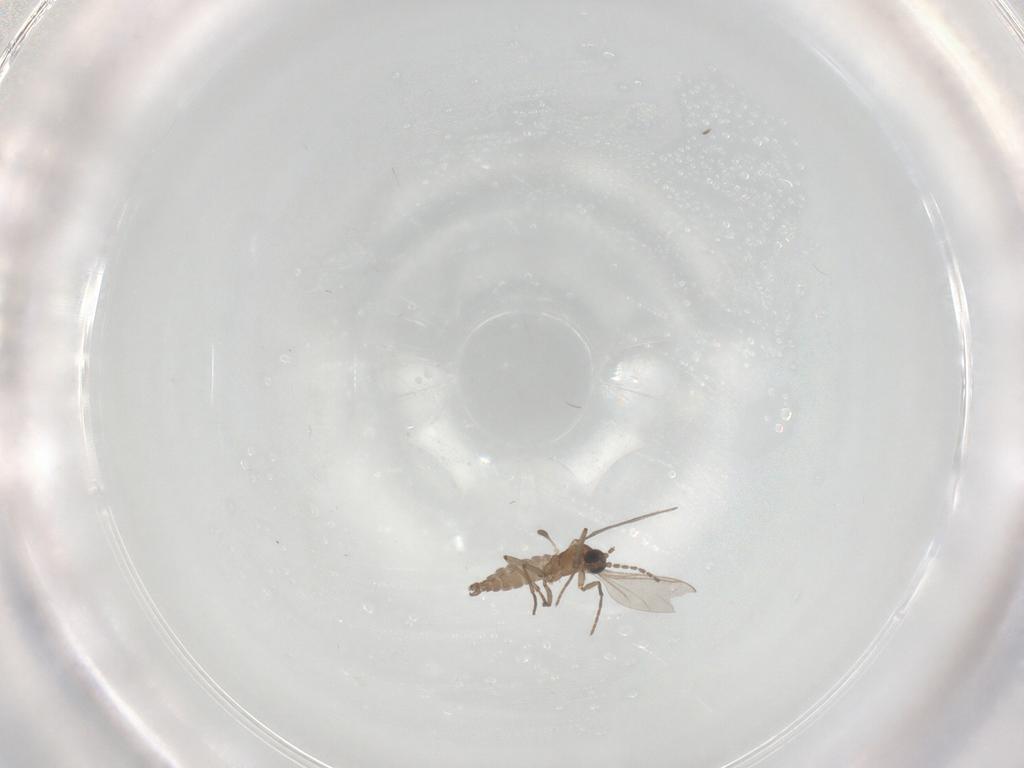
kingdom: Animalia
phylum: Arthropoda
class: Insecta
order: Diptera
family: Sciaridae
